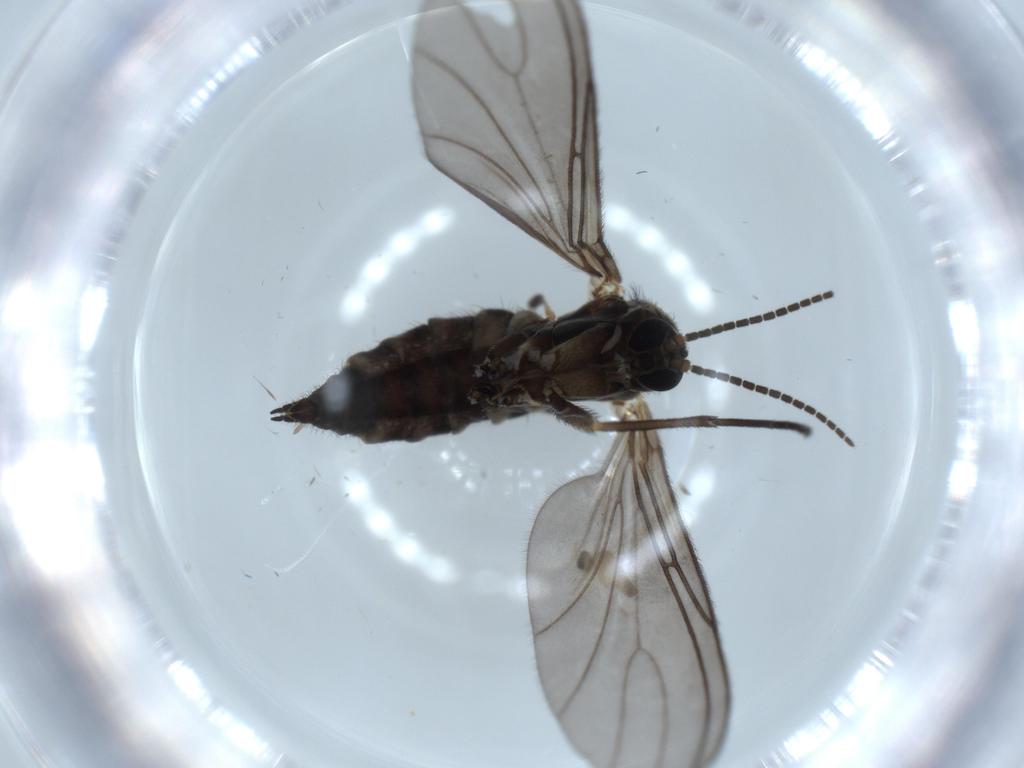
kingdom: Animalia
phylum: Arthropoda
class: Insecta
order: Diptera
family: Sciaridae
